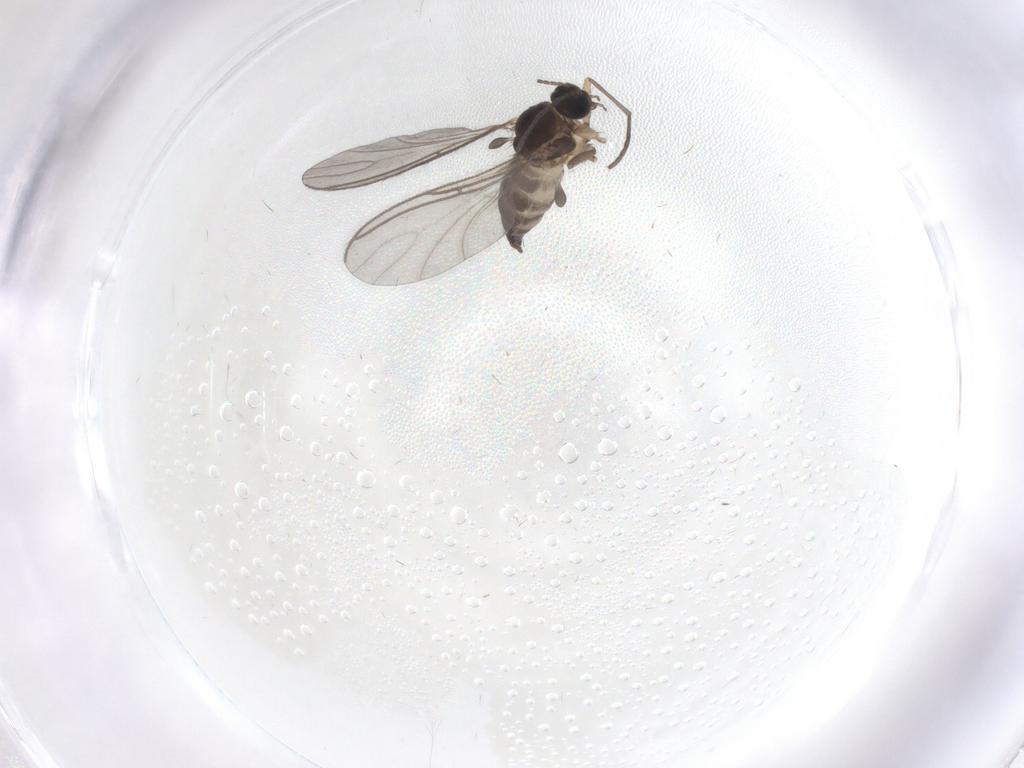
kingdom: Animalia
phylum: Arthropoda
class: Insecta
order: Diptera
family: Sciaridae
